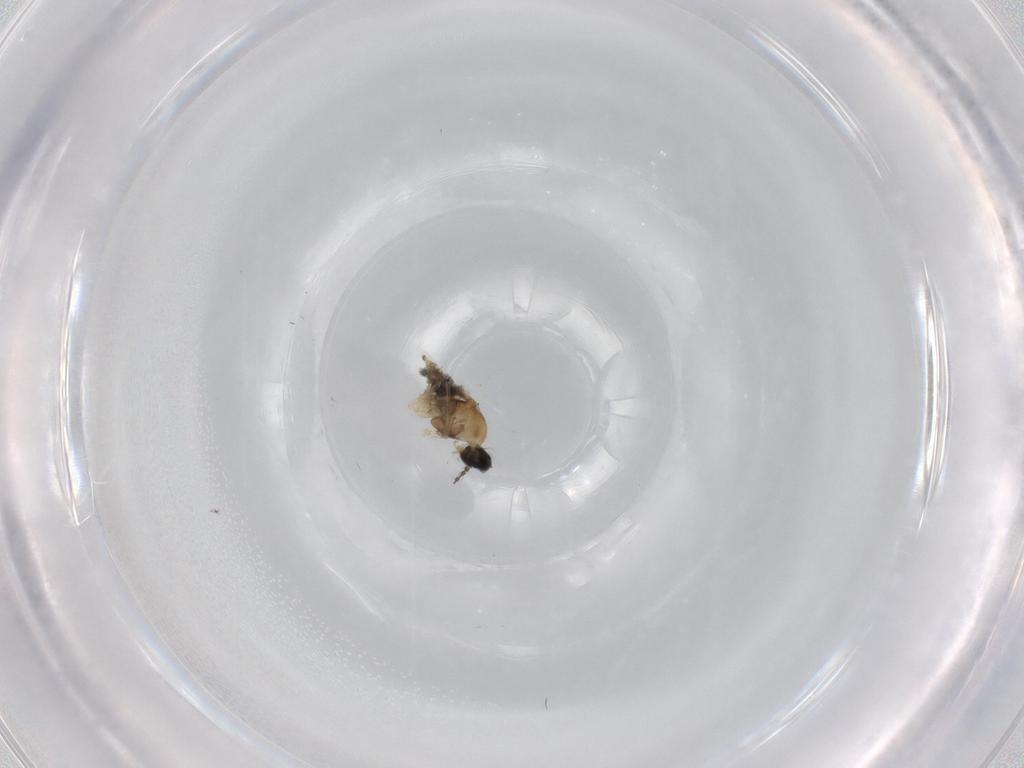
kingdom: Animalia
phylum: Arthropoda
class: Insecta
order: Diptera
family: Cecidomyiidae
